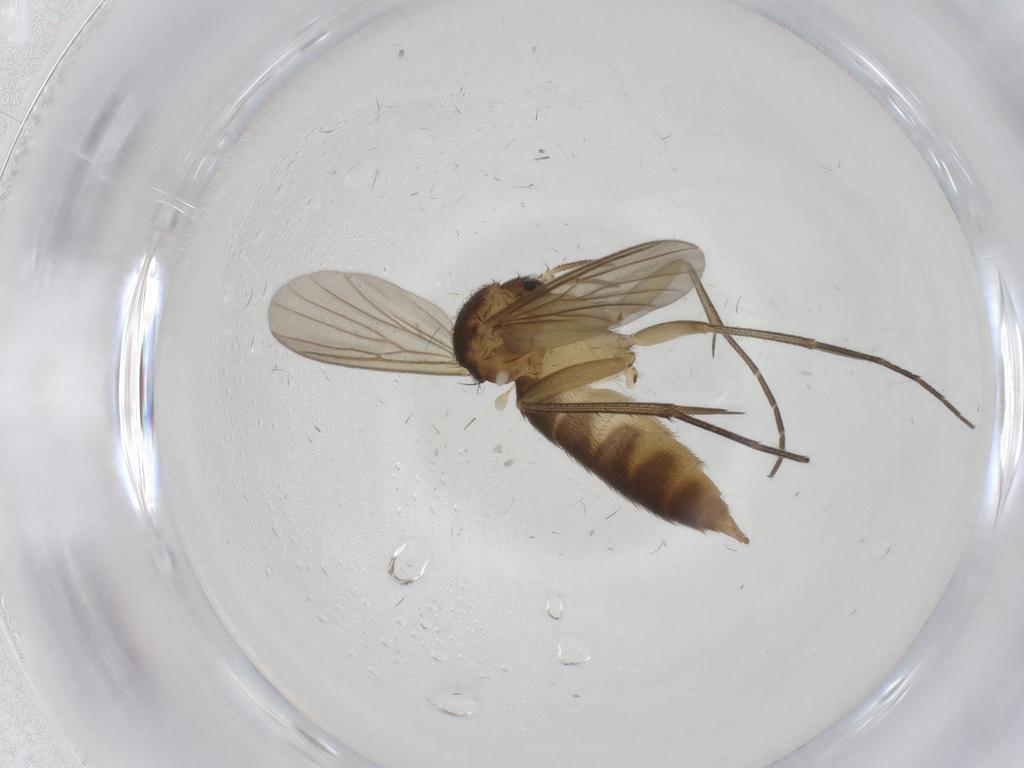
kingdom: Animalia
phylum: Arthropoda
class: Insecta
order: Diptera
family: Mycetophilidae
